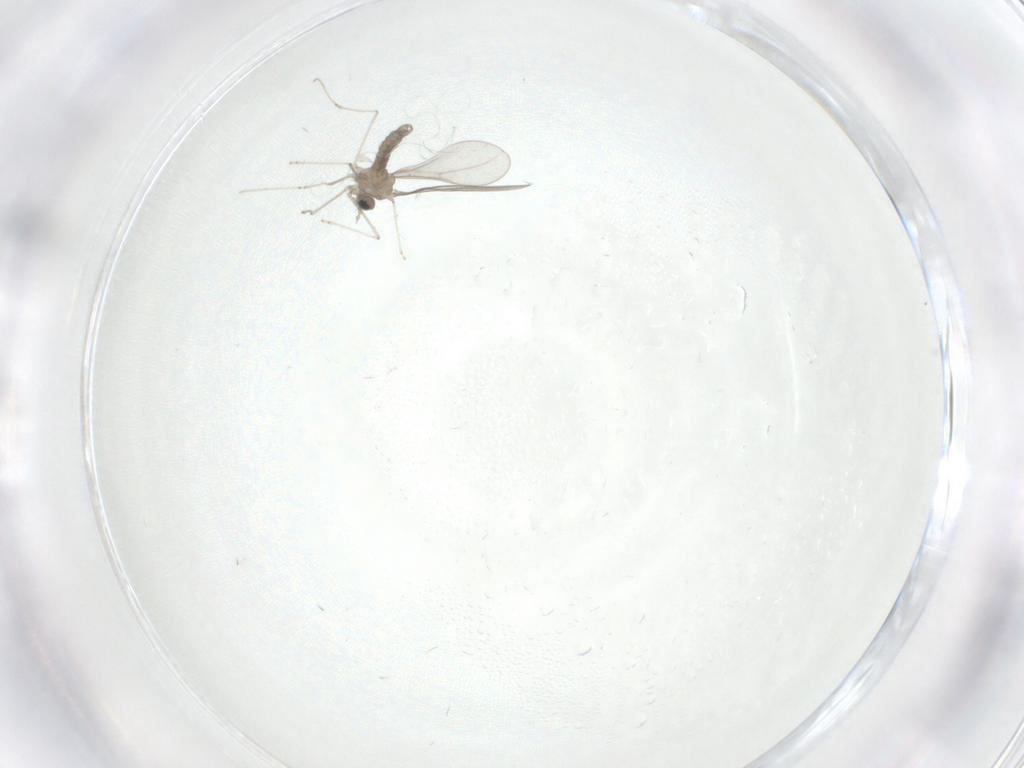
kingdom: Animalia
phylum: Arthropoda
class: Insecta
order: Diptera
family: Cecidomyiidae
